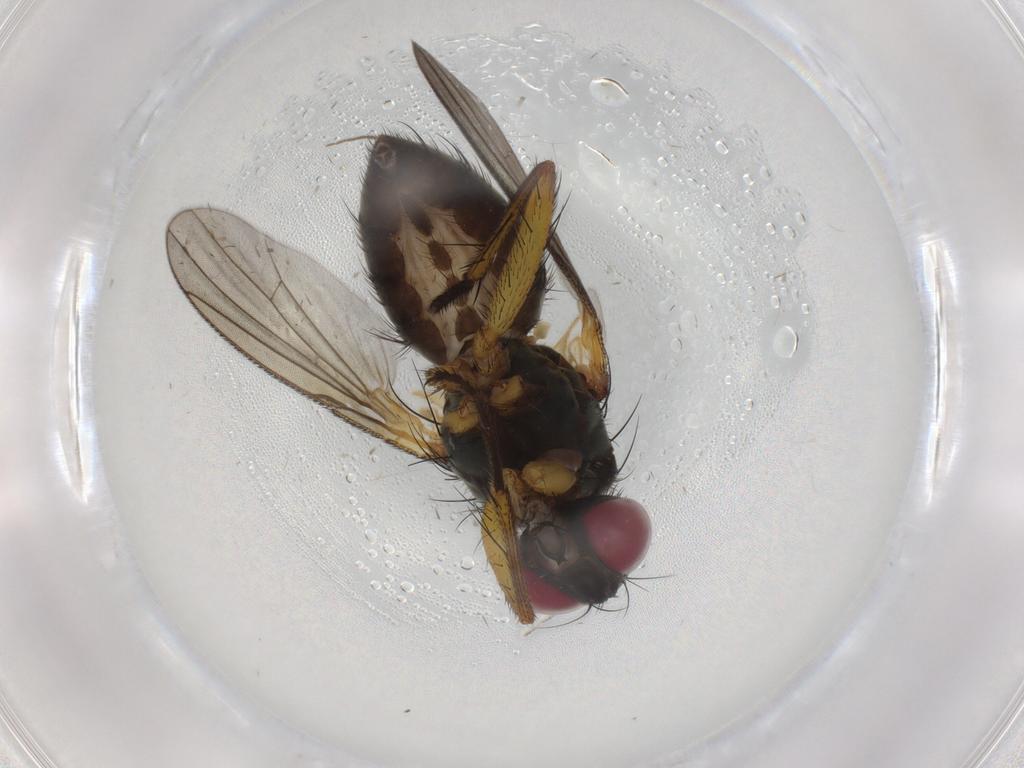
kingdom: Animalia
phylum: Arthropoda
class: Insecta
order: Diptera
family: Muscidae
